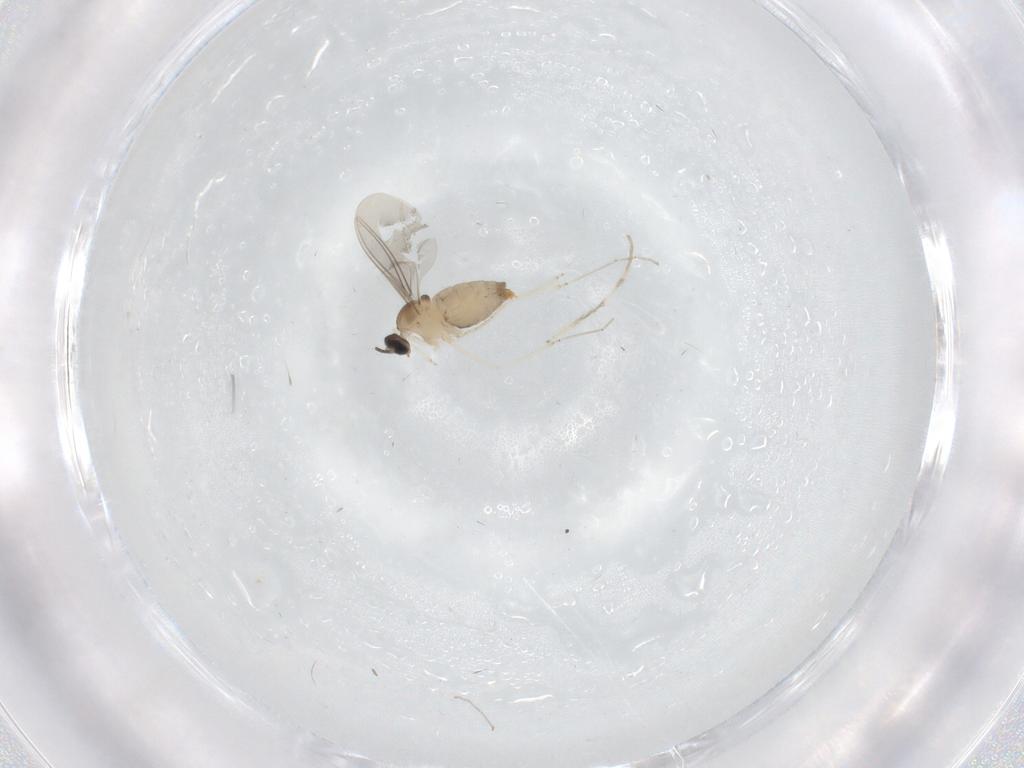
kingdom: Animalia
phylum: Arthropoda
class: Insecta
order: Diptera
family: Cecidomyiidae
